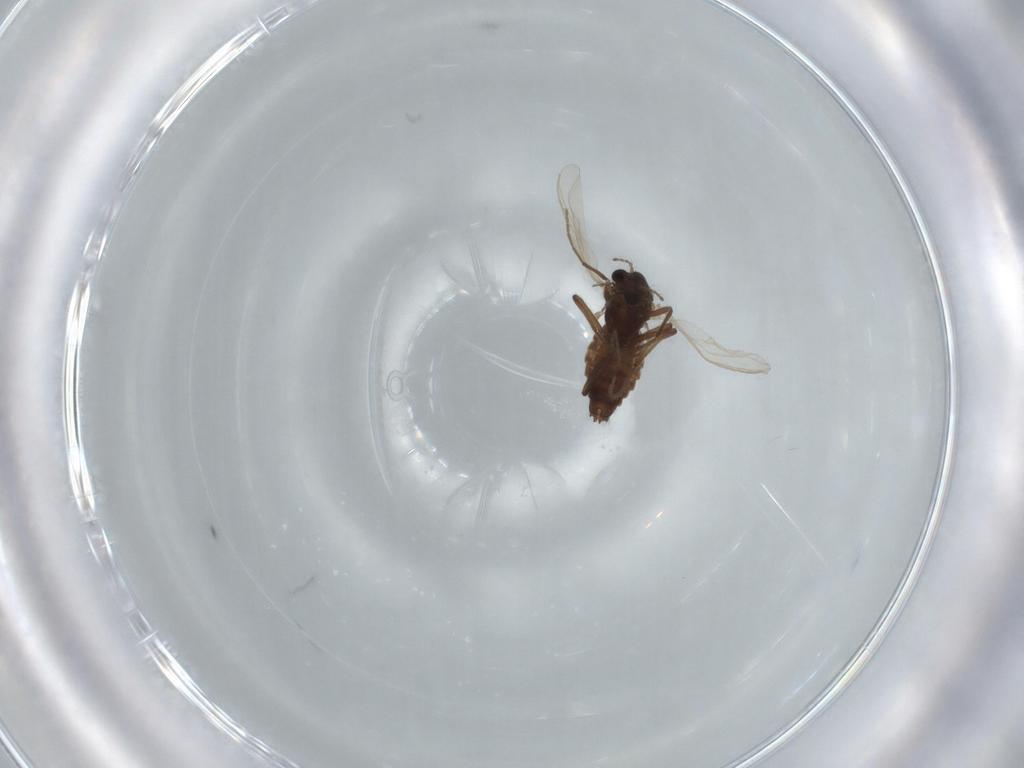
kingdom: Animalia
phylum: Arthropoda
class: Insecta
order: Diptera
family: Chironomidae
